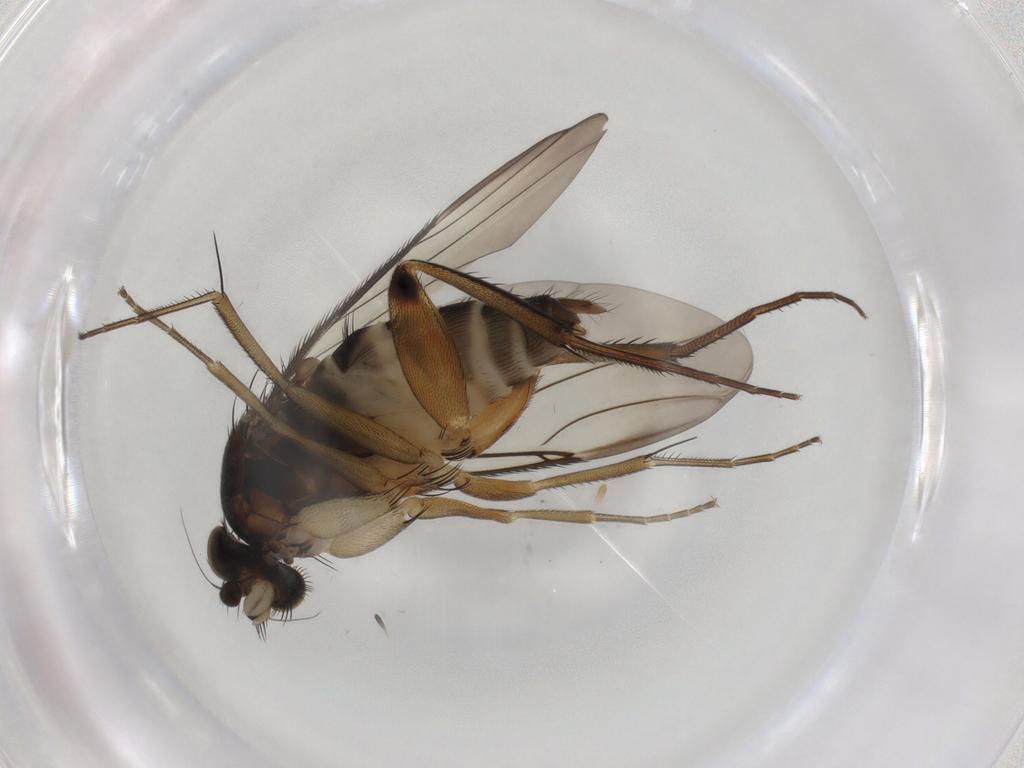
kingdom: Animalia
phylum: Arthropoda
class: Insecta
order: Diptera
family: Phoridae
